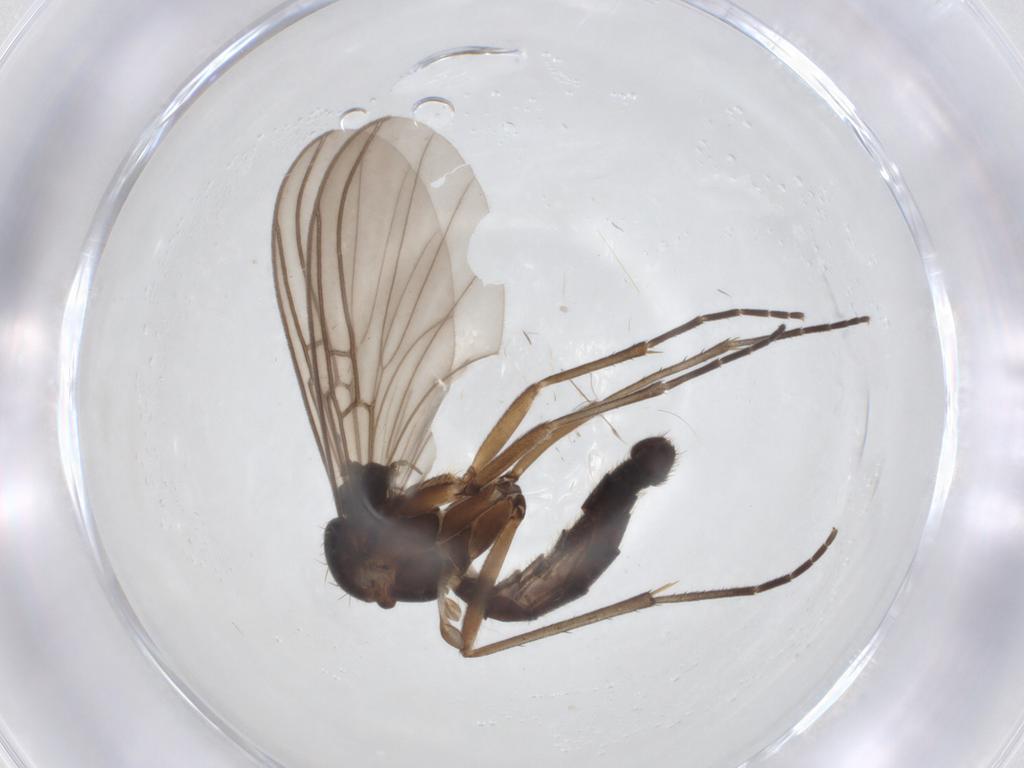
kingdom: Animalia
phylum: Arthropoda
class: Insecta
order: Diptera
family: Mycetophilidae
